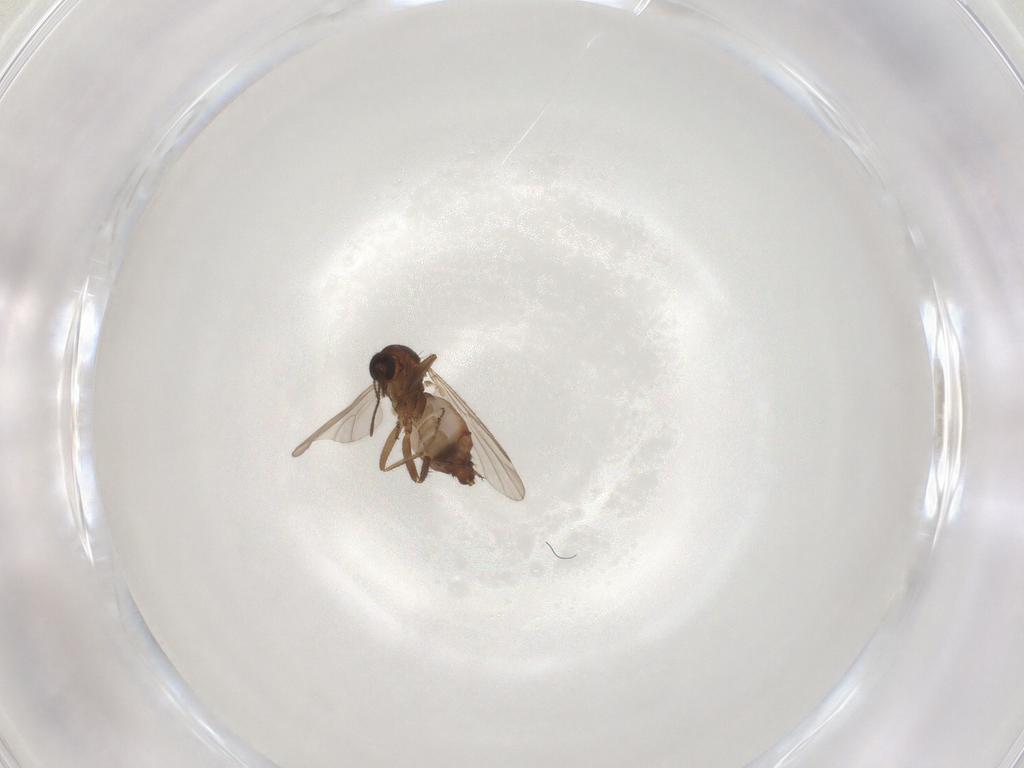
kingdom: Animalia
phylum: Arthropoda
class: Insecta
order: Diptera
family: Ceratopogonidae
